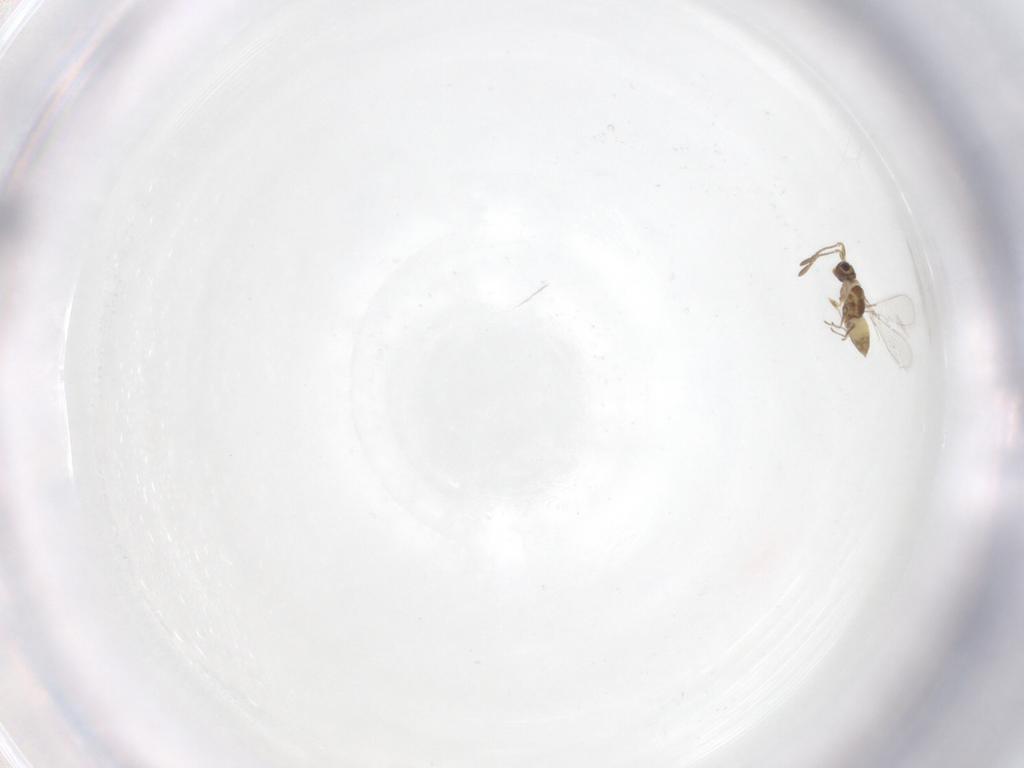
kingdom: Animalia
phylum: Arthropoda
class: Insecta
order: Hymenoptera
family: Mymaridae
